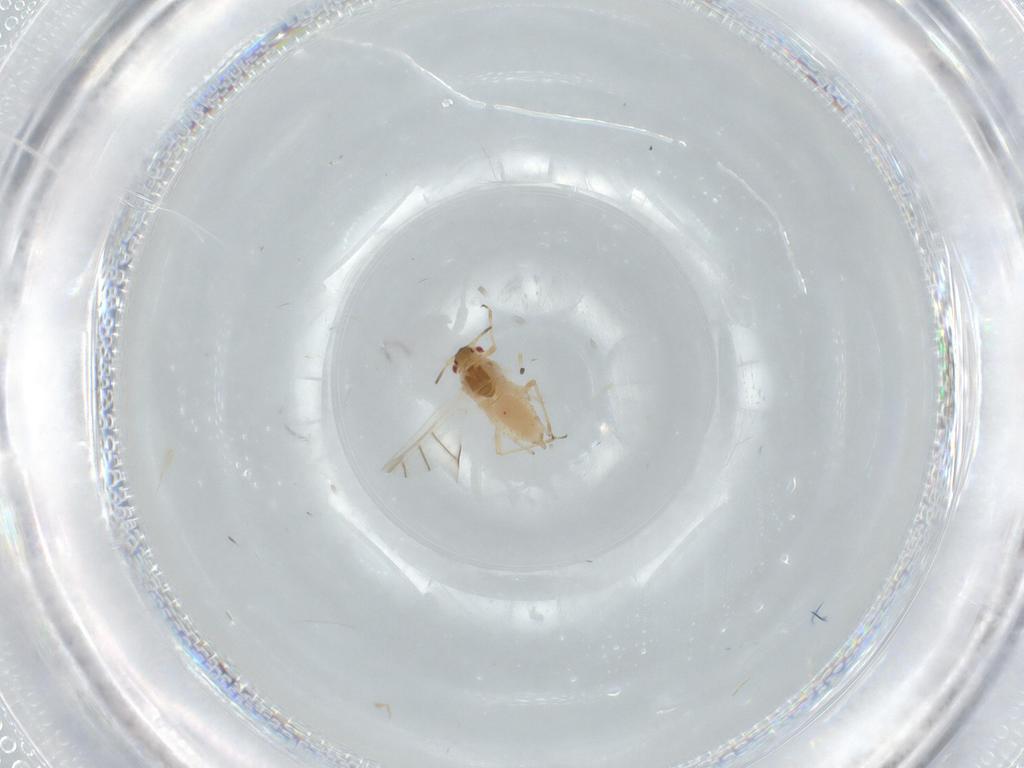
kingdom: Animalia
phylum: Arthropoda
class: Insecta
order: Hemiptera
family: Aphididae
